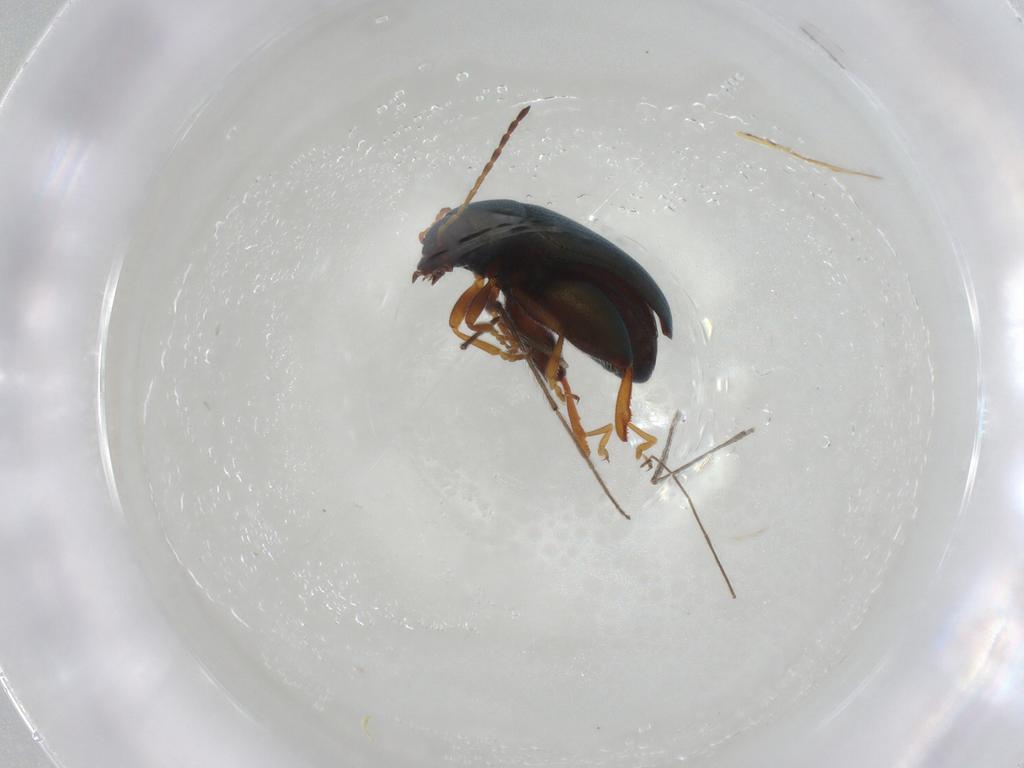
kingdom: Animalia
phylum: Arthropoda
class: Insecta
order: Coleoptera
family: Chrysomelidae
